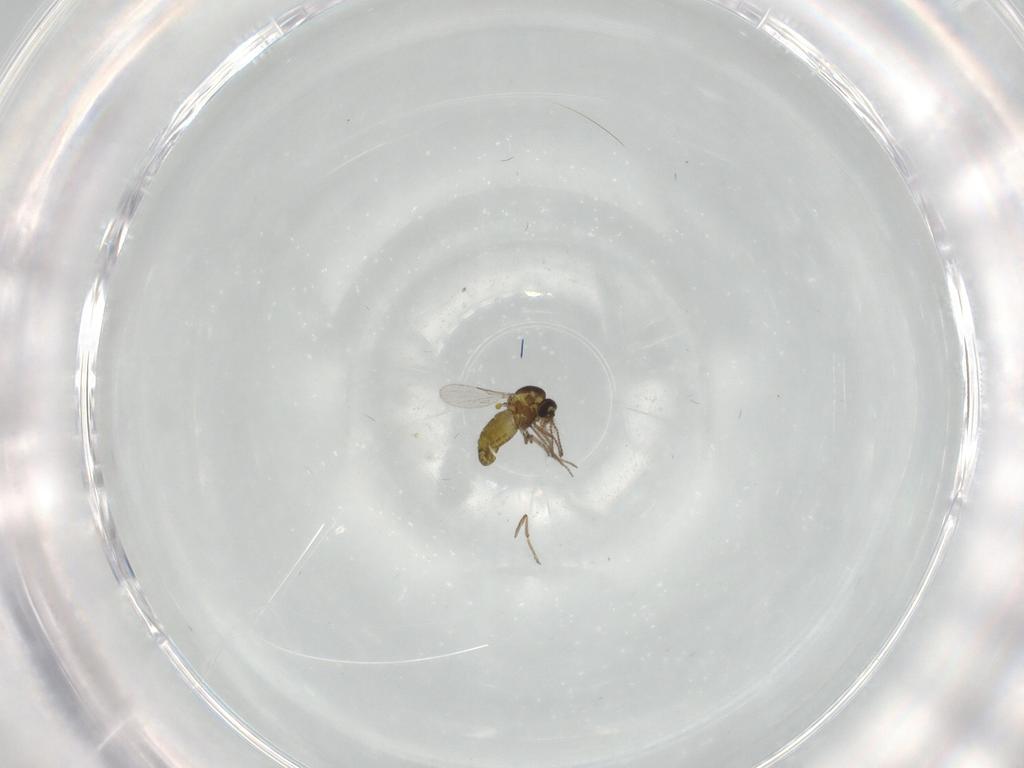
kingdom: Animalia
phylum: Arthropoda
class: Insecta
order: Diptera
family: Ceratopogonidae
